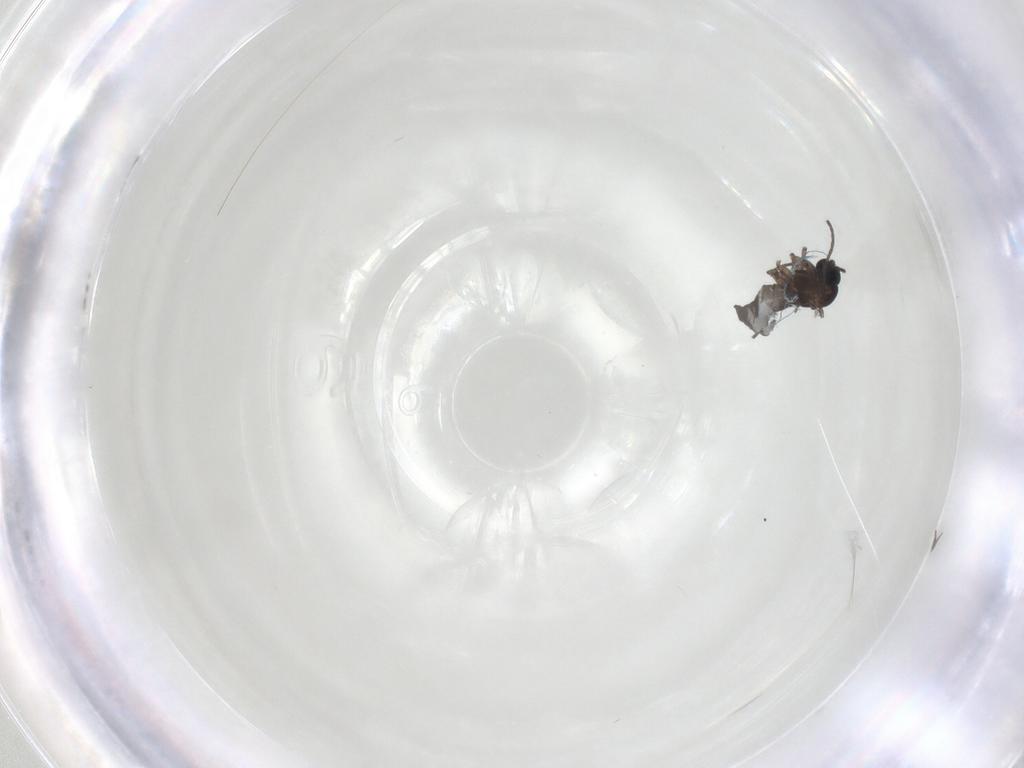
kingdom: Animalia
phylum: Arthropoda
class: Insecta
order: Diptera
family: Sciaridae
